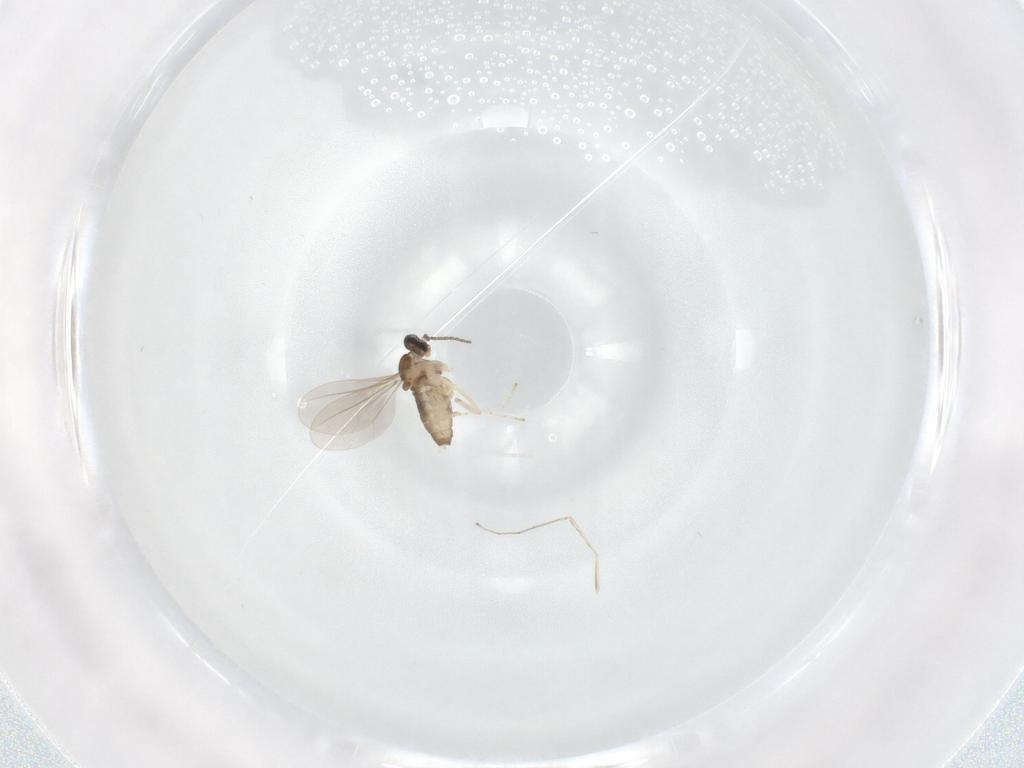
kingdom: Animalia
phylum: Arthropoda
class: Insecta
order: Diptera
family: Cecidomyiidae
